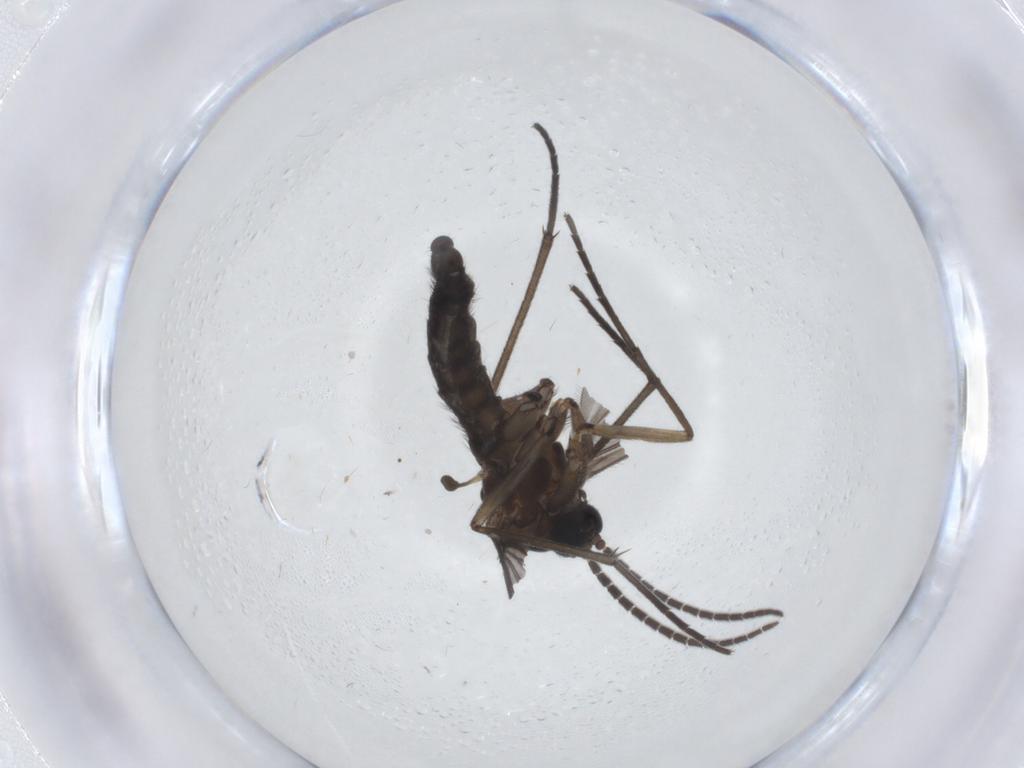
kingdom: Animalia
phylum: Arthropoda
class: Insecta
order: Diptera
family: Sciaridae
